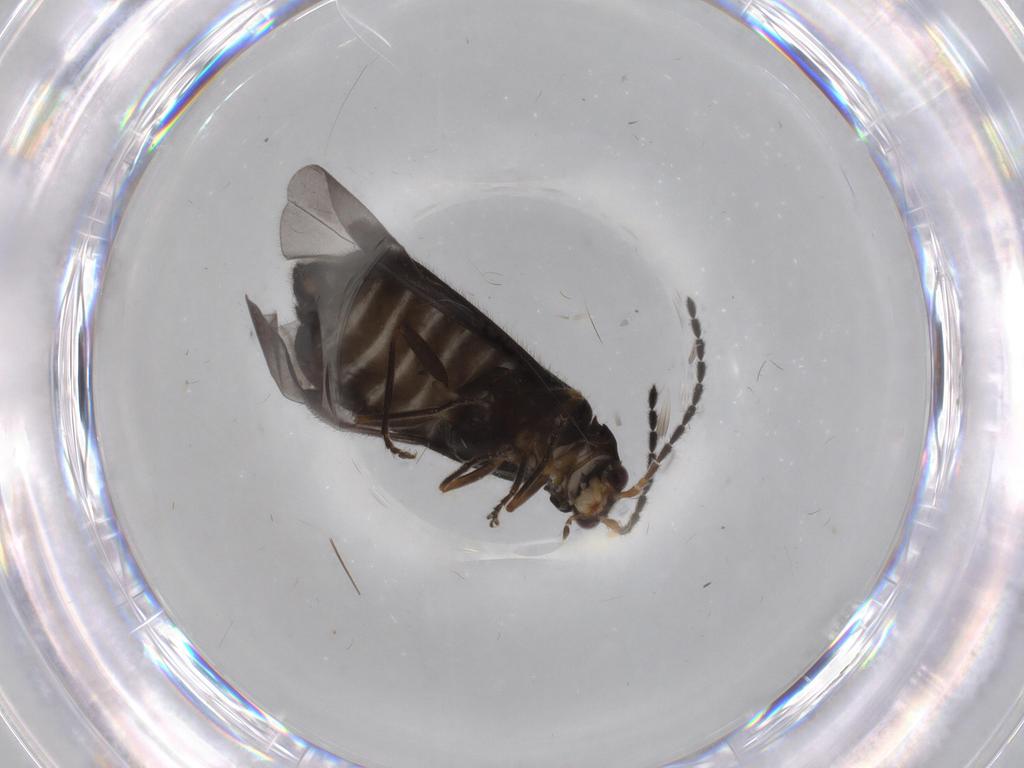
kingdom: Animalia
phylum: Arthropoda
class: Insecta
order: Coleoptera
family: Cantharidae
